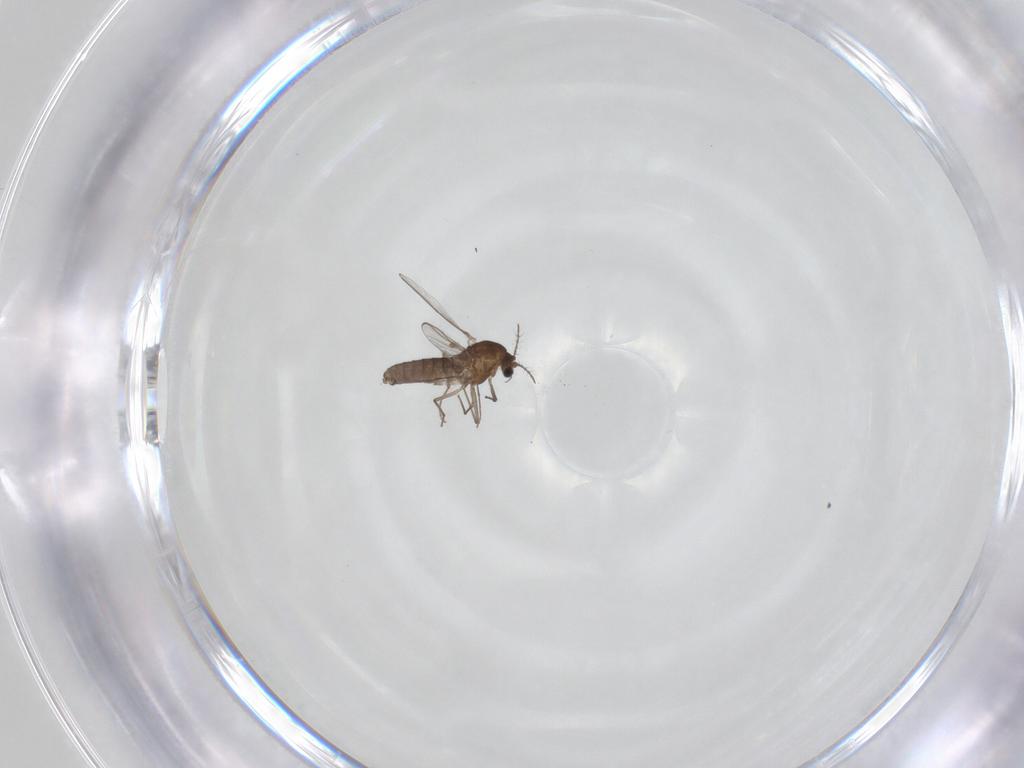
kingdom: Animalia
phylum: Arthropoda
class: Insecta
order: Diptera
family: Chironomidae
